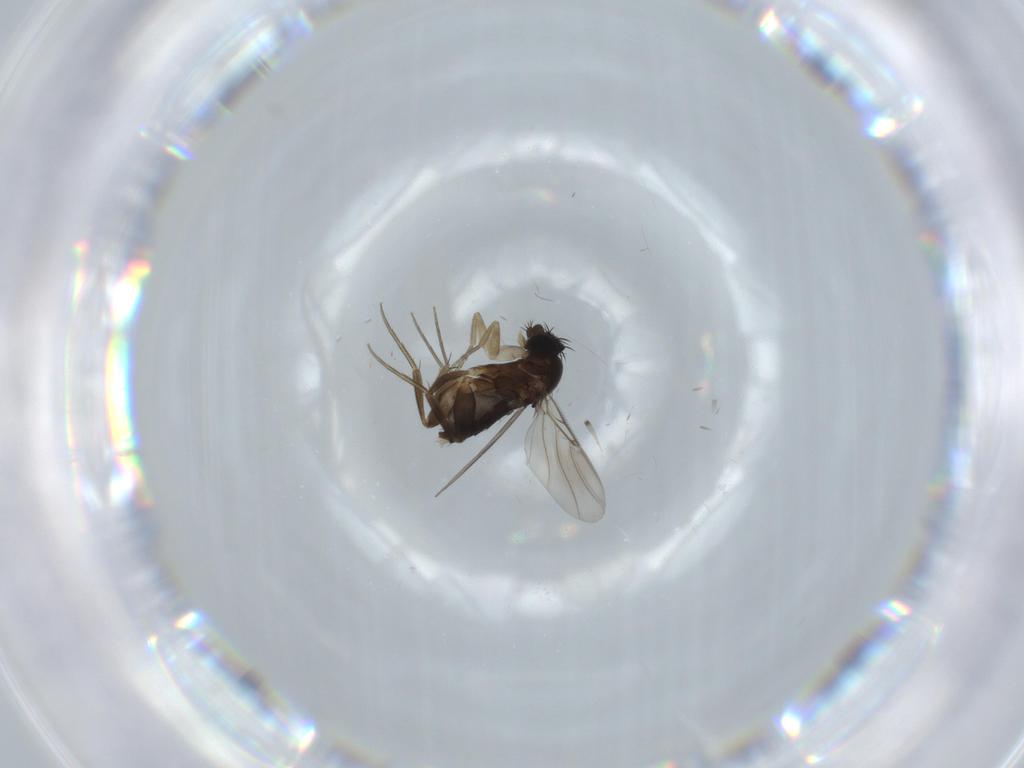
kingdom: Animalia
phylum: Arthropoda
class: Insecta
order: Diptera
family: Phoridae
